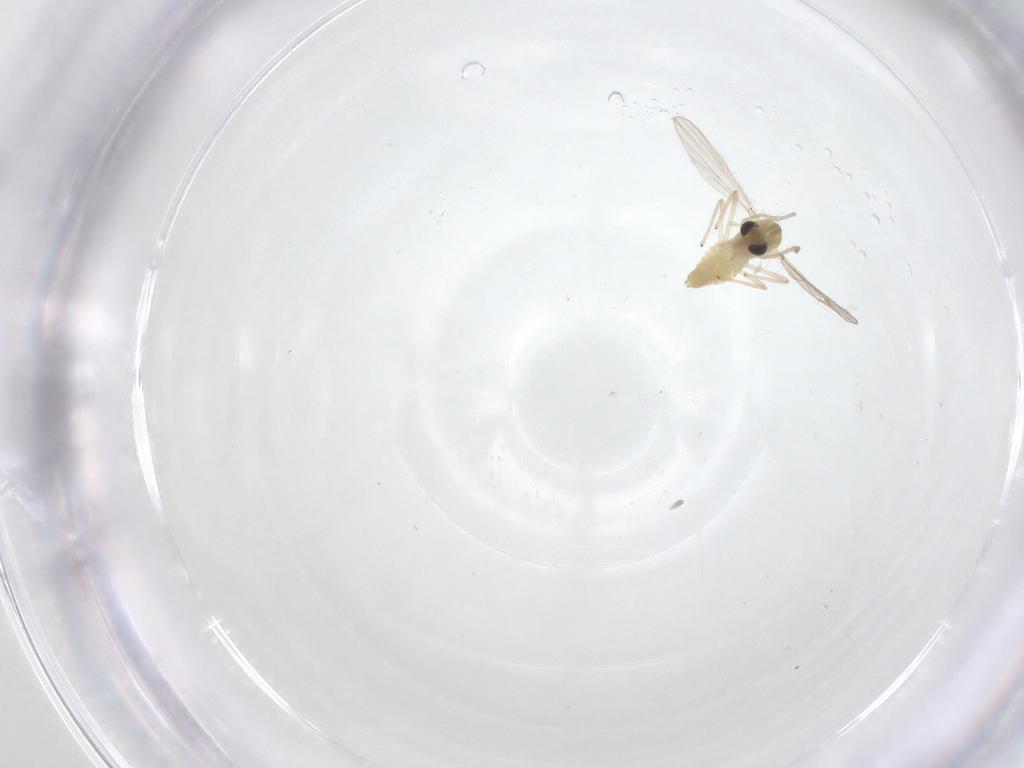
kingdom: Animalia
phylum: Arthropoda
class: Insecta
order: Diptera
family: Chironomidae
